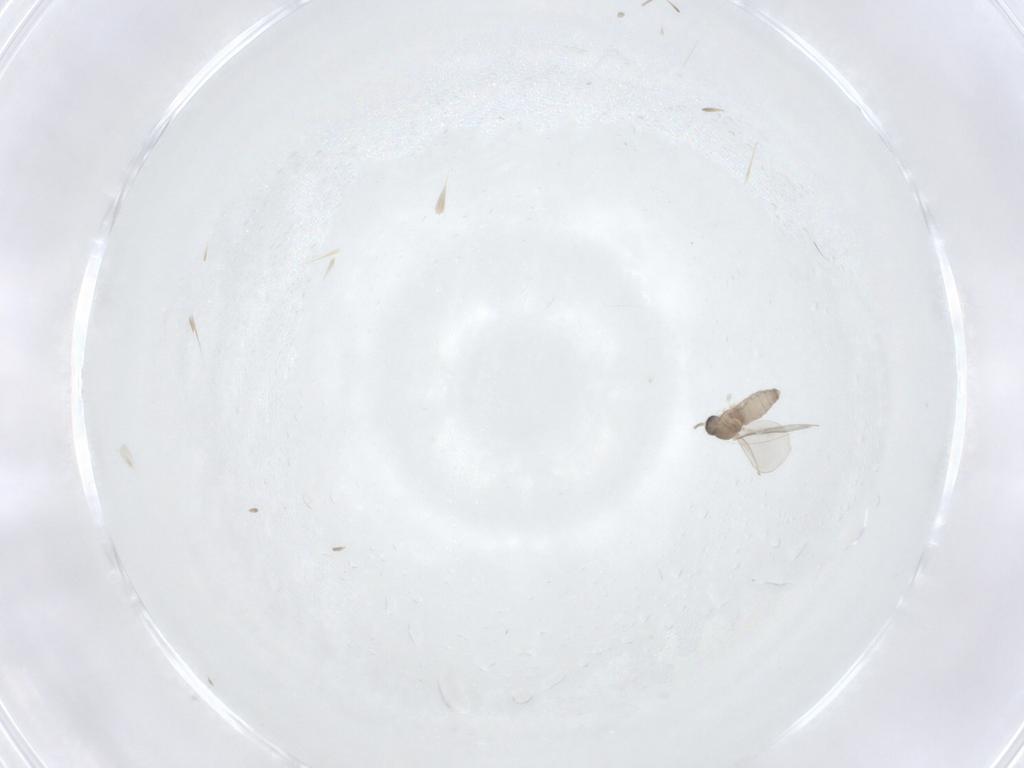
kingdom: Animalia
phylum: Arthropoda
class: Insecta
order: Diptera
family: Cecidomyiidae
